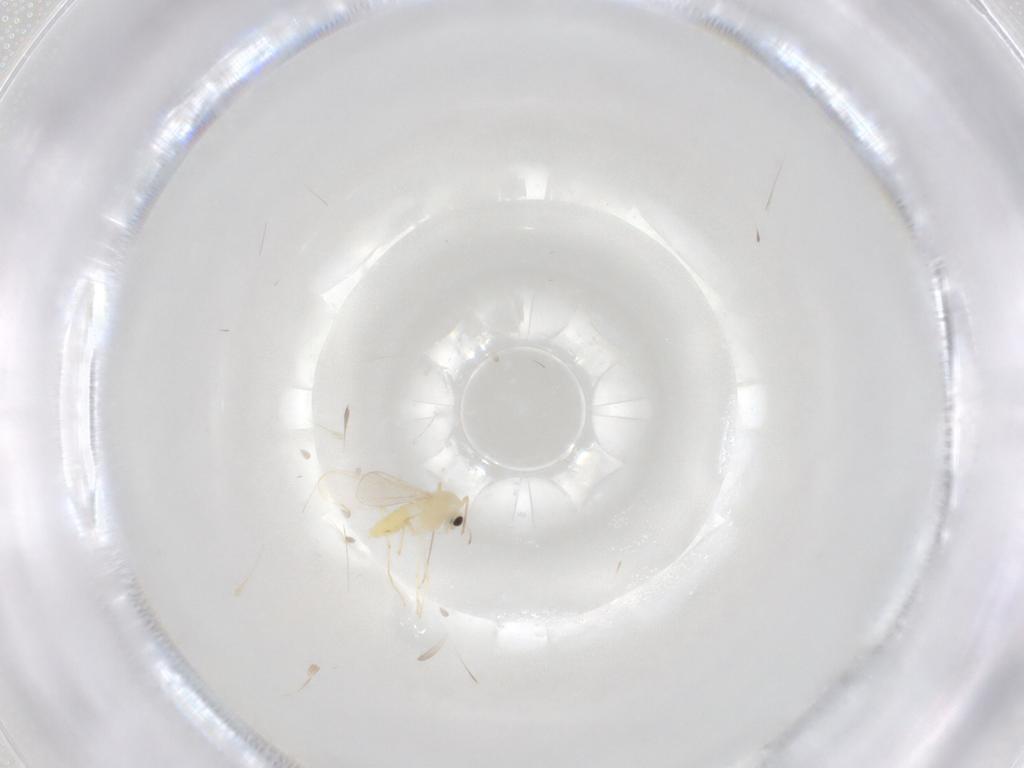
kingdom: Animalia
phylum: Arthropoda
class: Insecta
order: Diptera
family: Chironomidae
